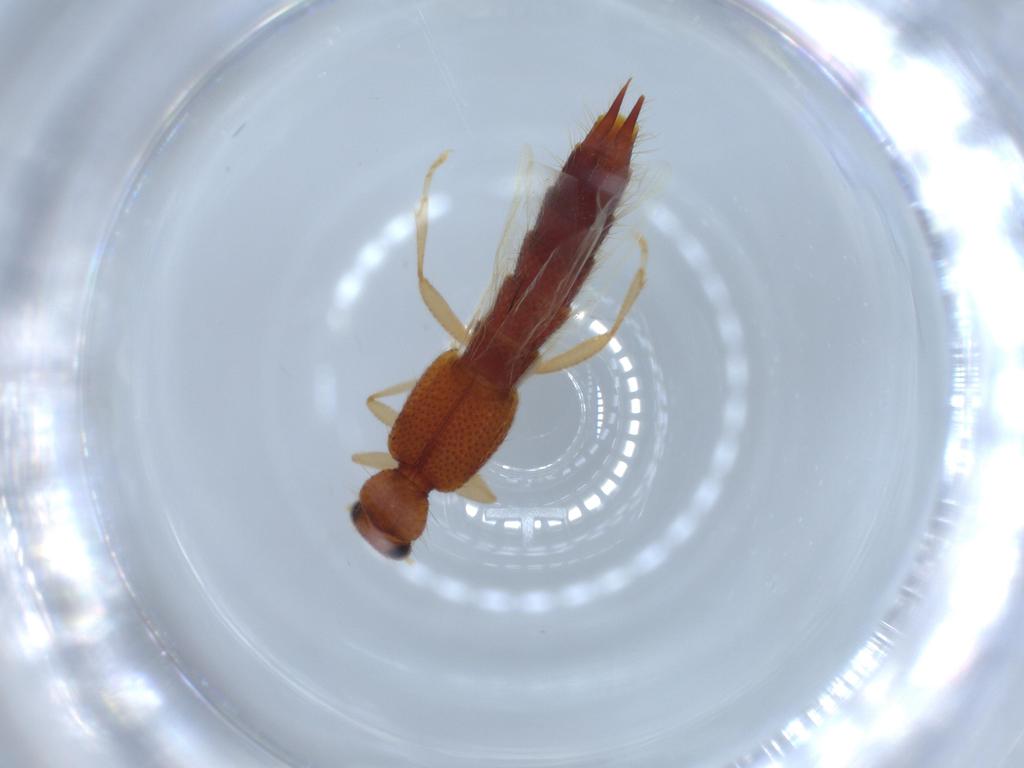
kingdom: Animalia
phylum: Arthropoda
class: Insecta
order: Coleoptera
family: Staphylinidae
